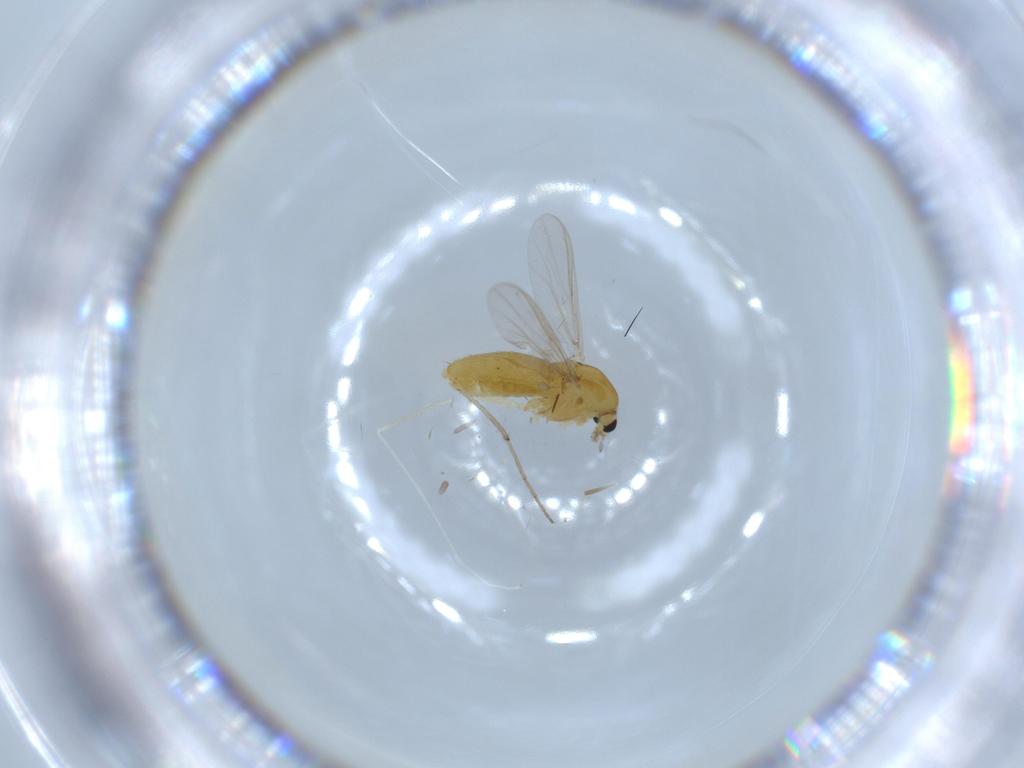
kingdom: Animalia
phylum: Arthropoda
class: Insecta
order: Diptera
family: Chironomidae
